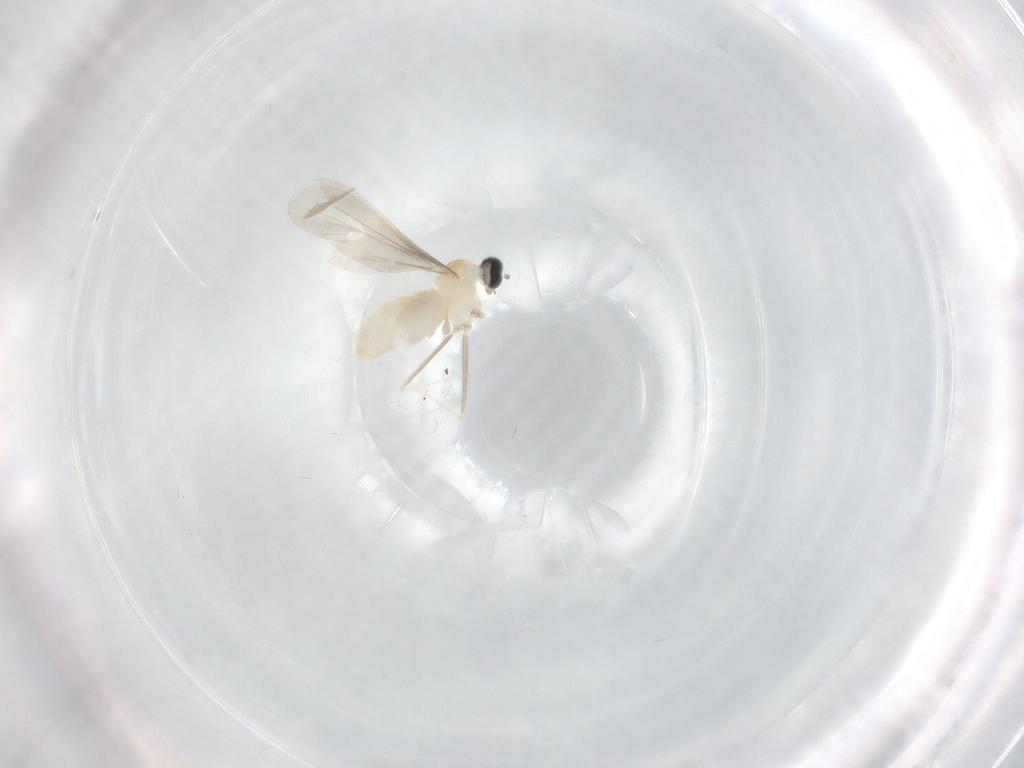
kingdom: Animalia
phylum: Arthropoda
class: Insecta
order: Diptera
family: Cecidomyiidae
